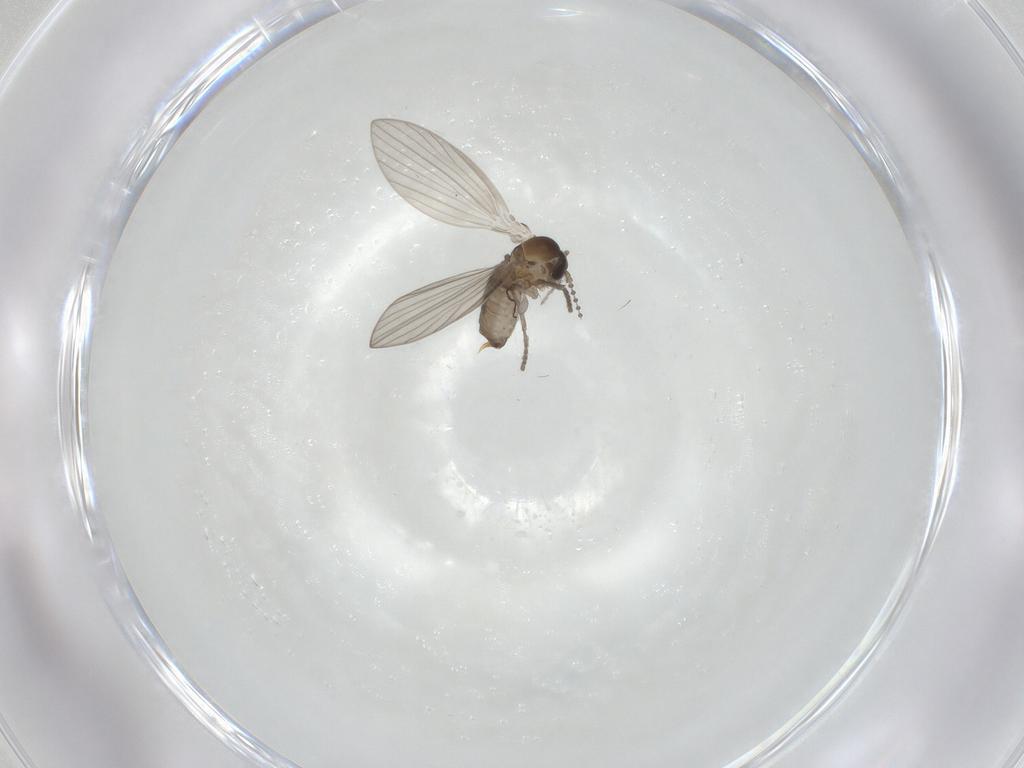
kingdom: Animalia
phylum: Arthropoda
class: Insecta
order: Diptera
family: Psychodidae
